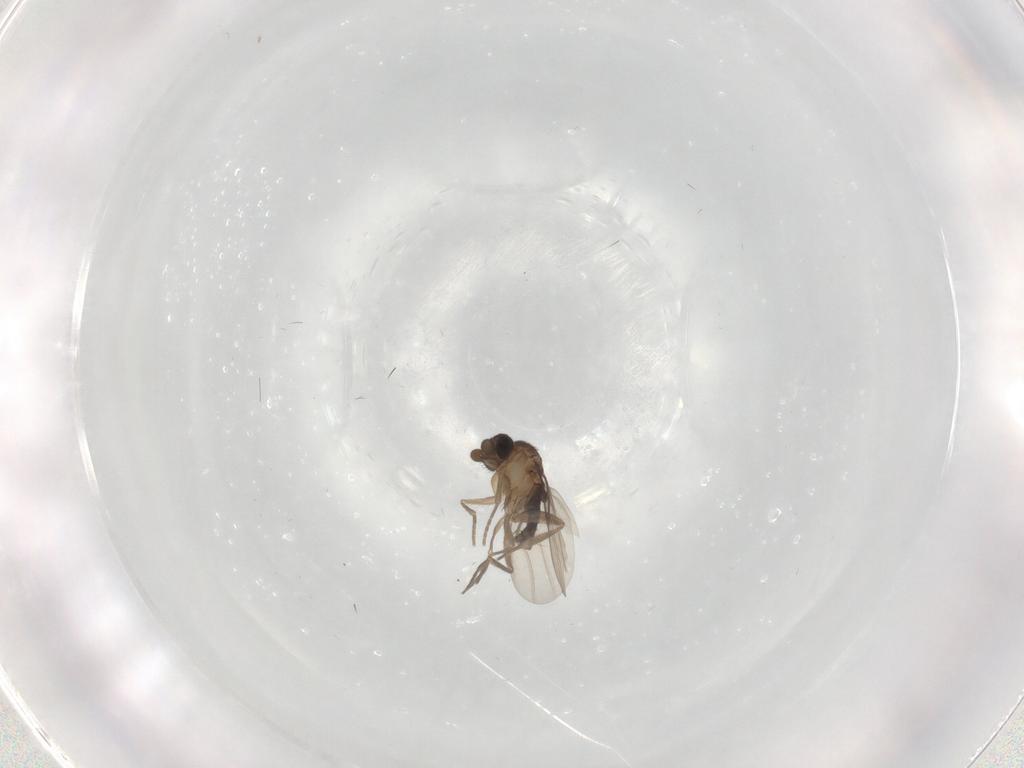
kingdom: Animalia
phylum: Arthropoda
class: Insecta
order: Diptera
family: Phoridae
